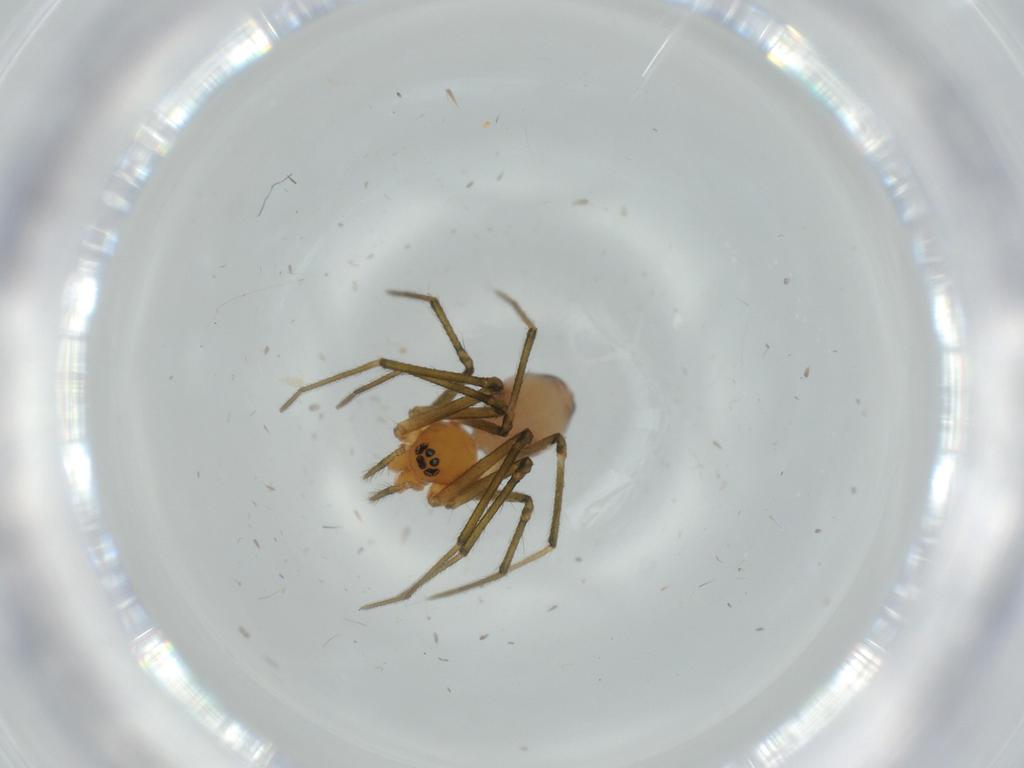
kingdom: Animalia
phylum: Arthropoda
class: Arachnida
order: Araneae
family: Linyphiidae
